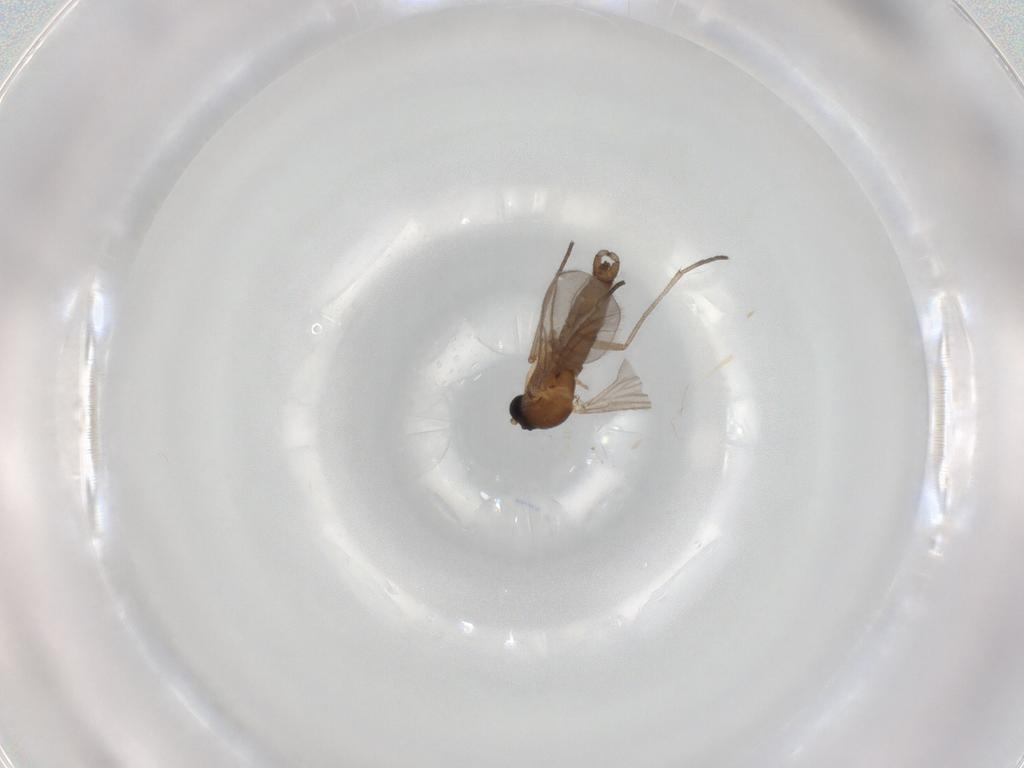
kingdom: Animalia
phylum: Arthropoda
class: Insecta
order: Diptera
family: Sciaridae
